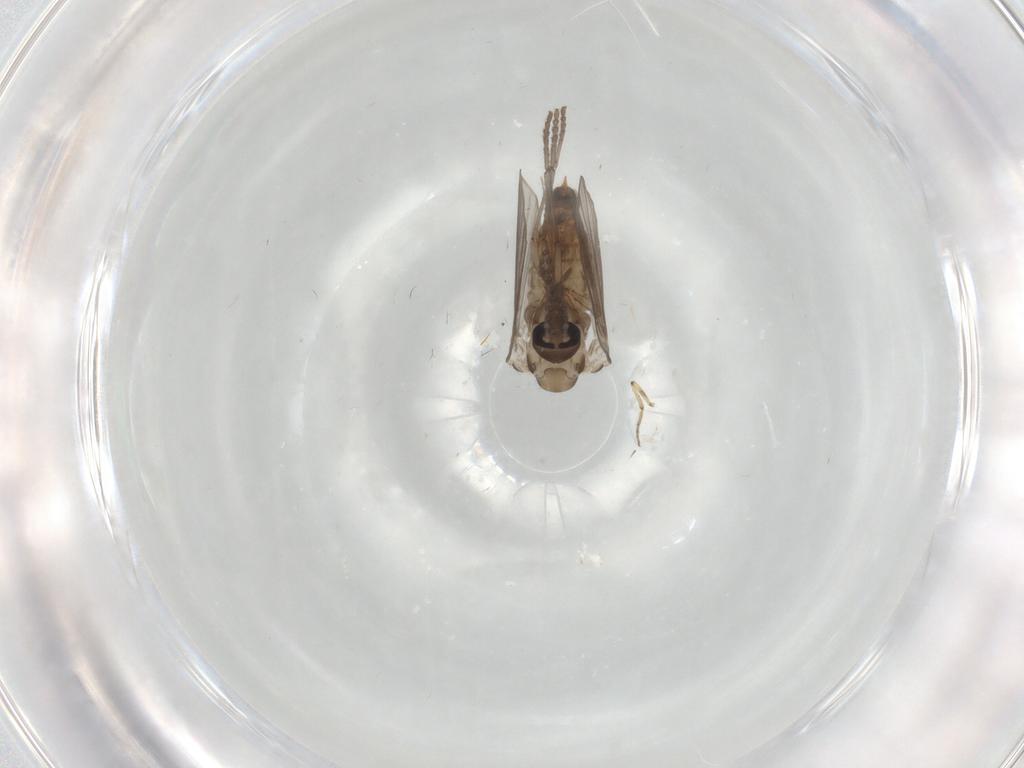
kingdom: Animalia
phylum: Arthropoda
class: Insecta
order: Diptera
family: Psychodidae
